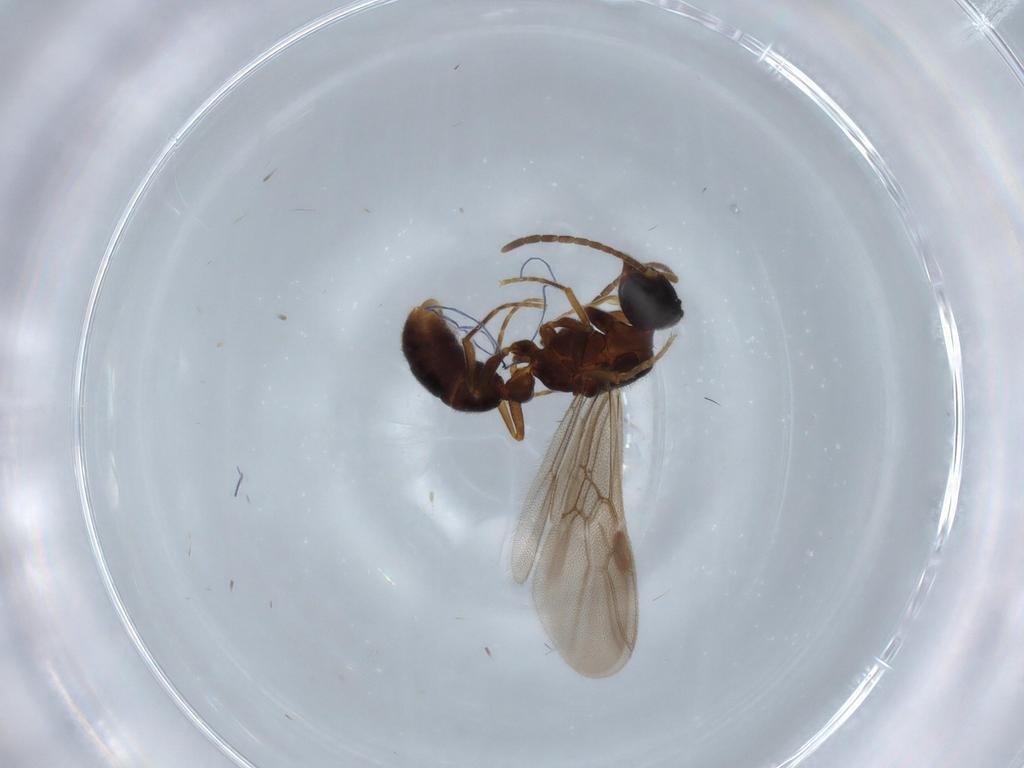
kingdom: Animalia
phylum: Arthropoda
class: Insecta
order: Hymenoptera
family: Formicidae
